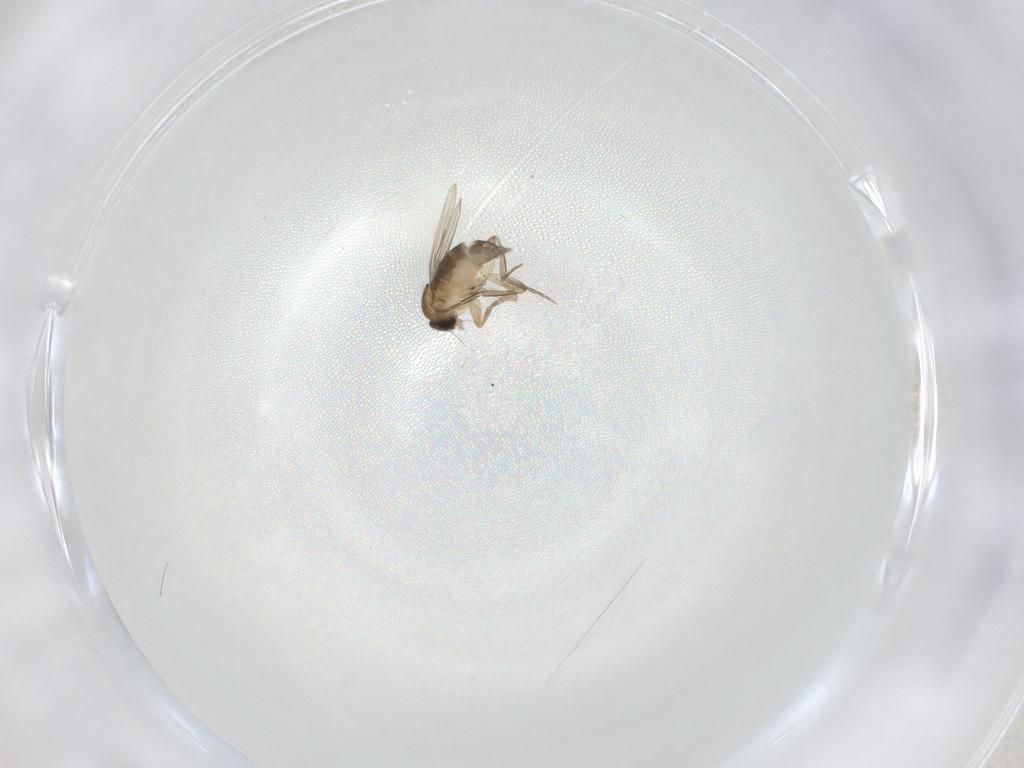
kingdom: Animalia
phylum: Arthropoda
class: Insecta
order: Diptera
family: Phoridae
